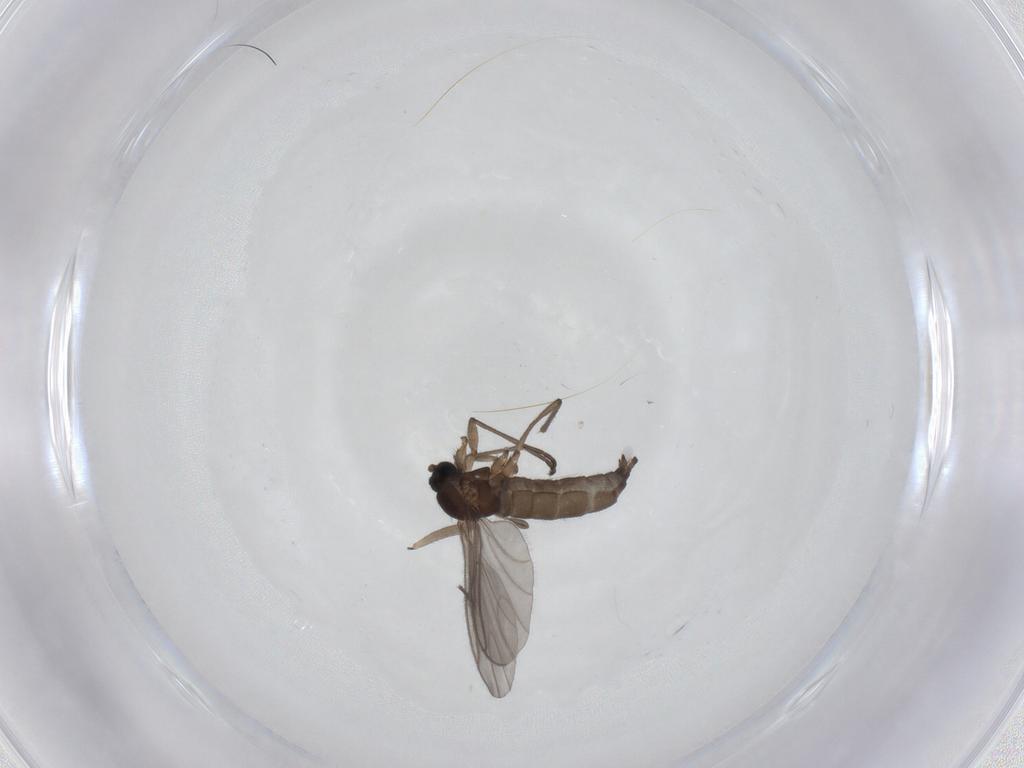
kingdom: Animalia
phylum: Arthropoda
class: Insecta
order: Diptera
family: Sciaridae
